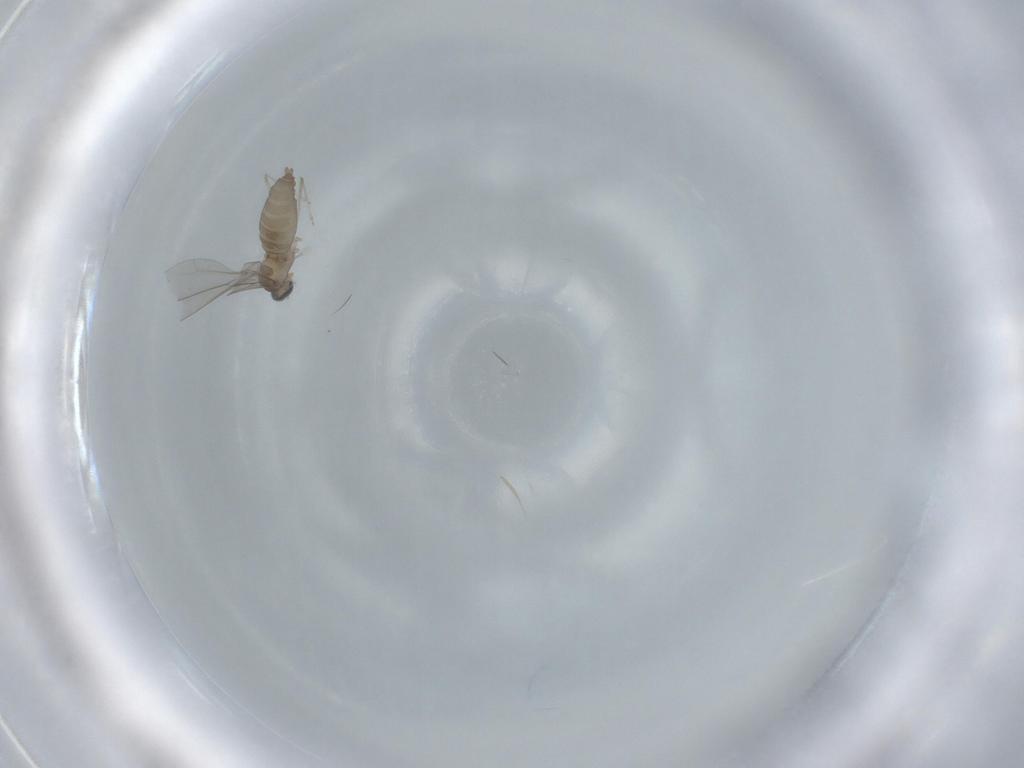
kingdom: Animalia
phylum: Arthropoda
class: Insecta
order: Diptera
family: Cecidomyiidae
